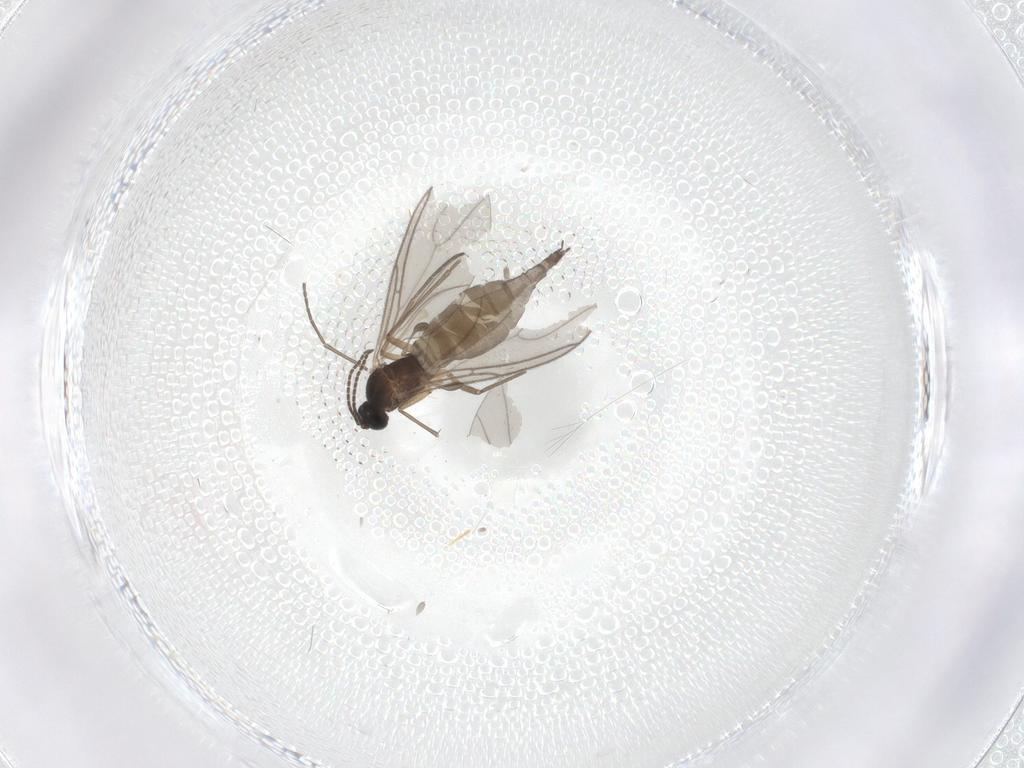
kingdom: Animalia
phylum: Arthropoda
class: Insecta
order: Diptera
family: Sciaridae
